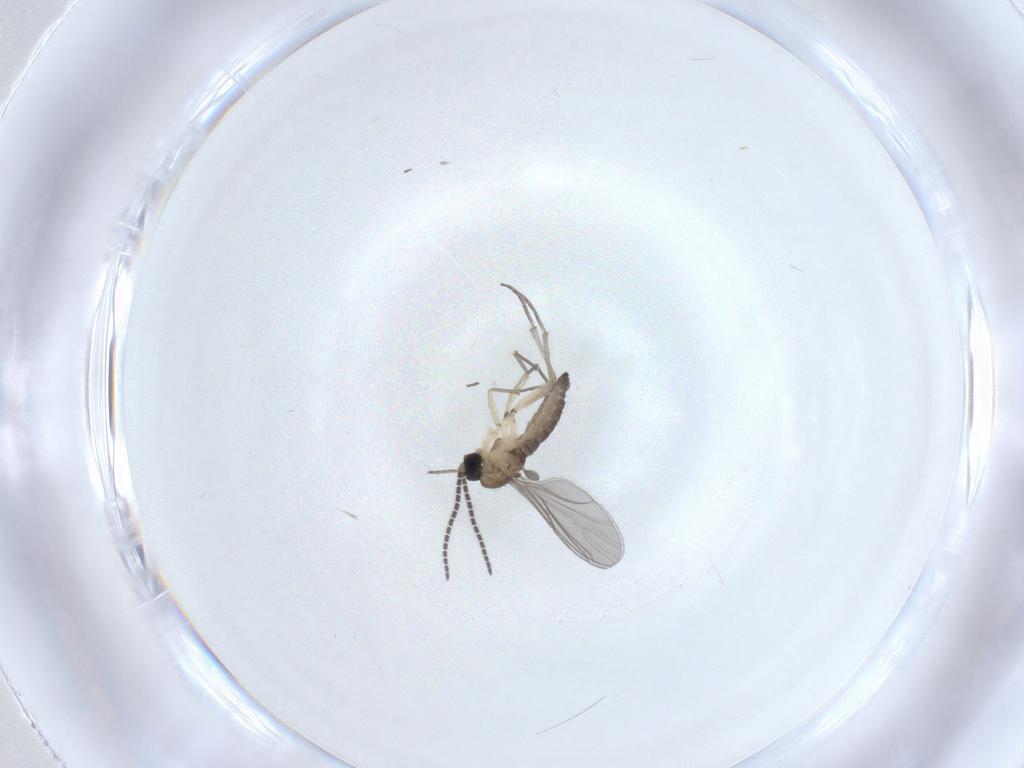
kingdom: Animalia
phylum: Arthropoda
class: Insecta
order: Diptera
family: Sciaridae
